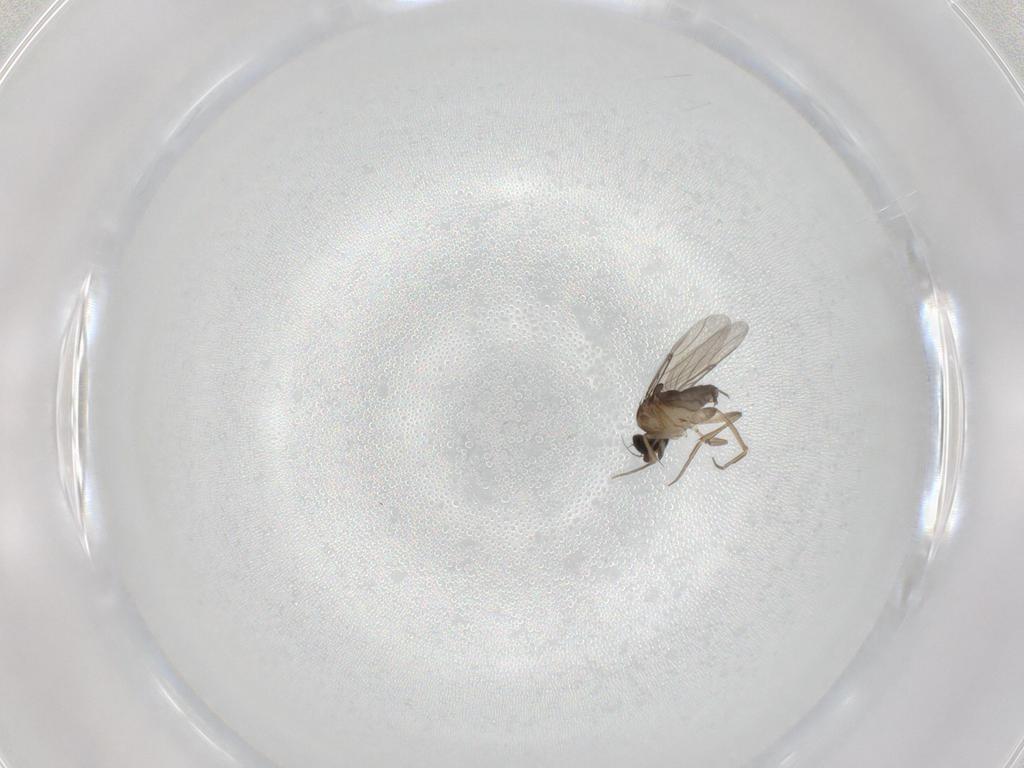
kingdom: Animalia
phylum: Arthropoda
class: Insecta
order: Diptera
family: Phoridae
